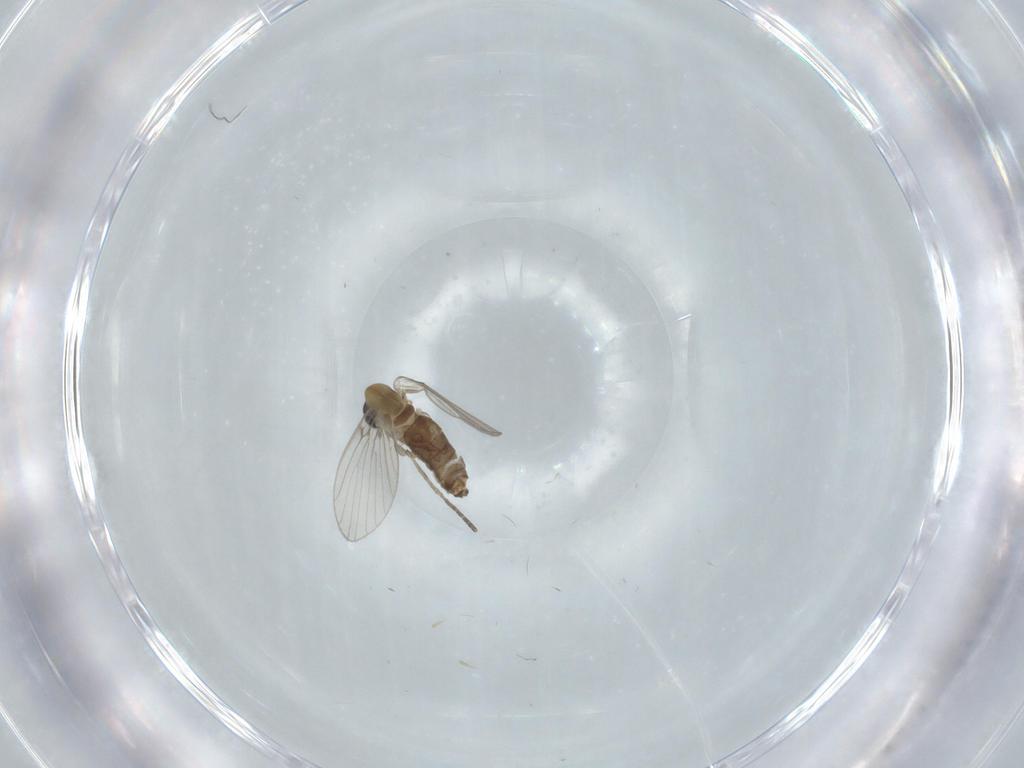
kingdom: Animalia
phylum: Arthropoda
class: Insecta
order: Diptera
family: Psychodidae
